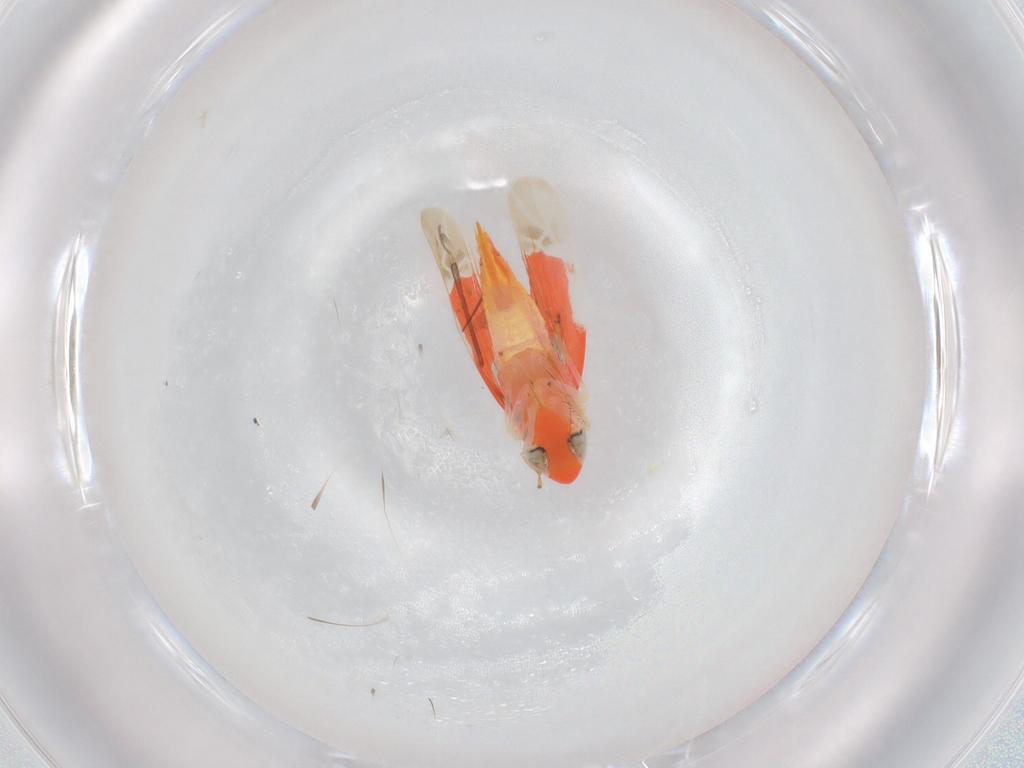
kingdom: Animalia
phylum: Arthropoda
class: Insecta
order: Hemiptera
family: Cicadellidae
